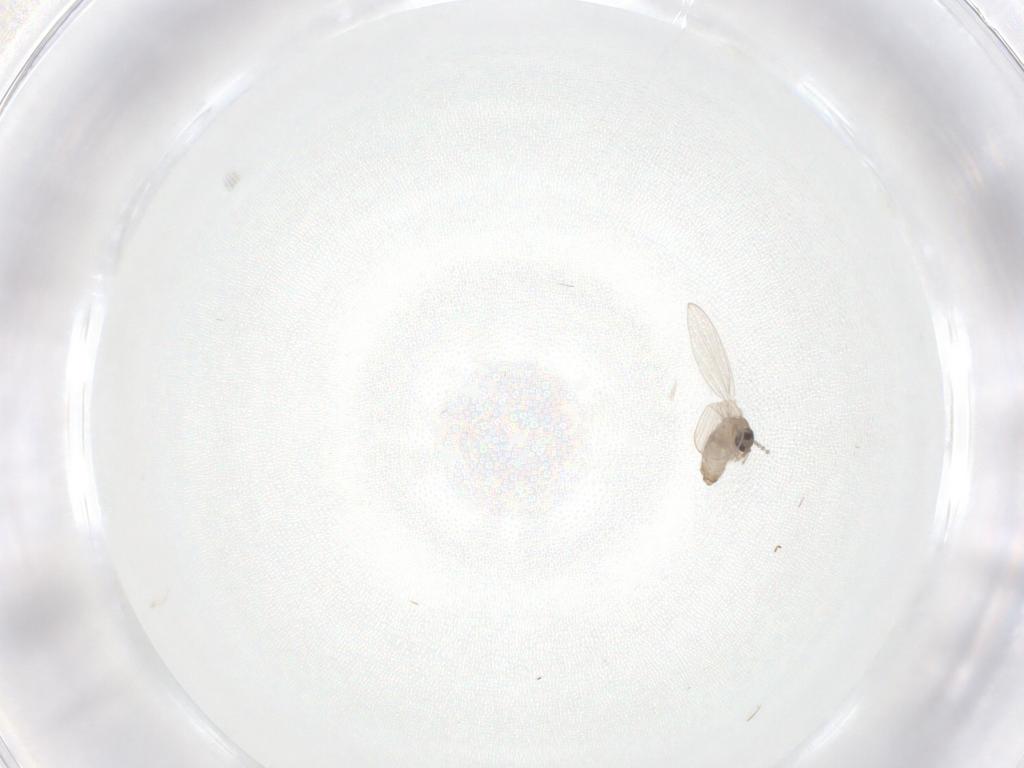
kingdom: Animalia
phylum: Arthropoda
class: Insecta
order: Diptera
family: Psychodidae
